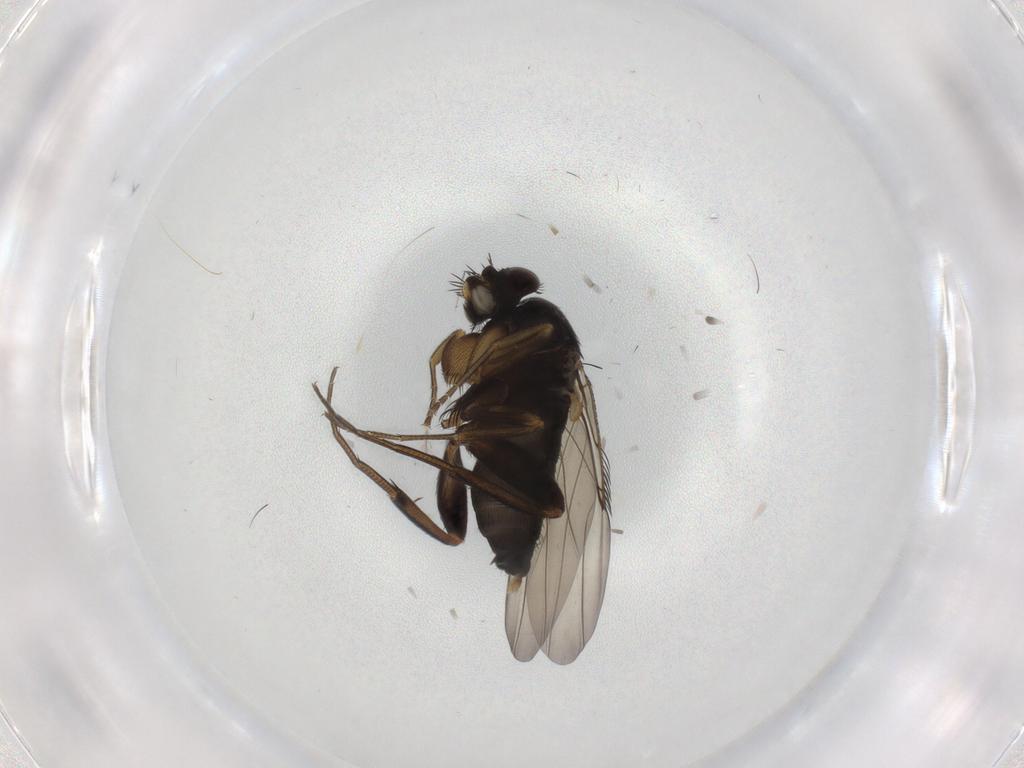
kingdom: Animalia
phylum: Arthropoda
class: Insecta
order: Diptera
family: Phoridae
